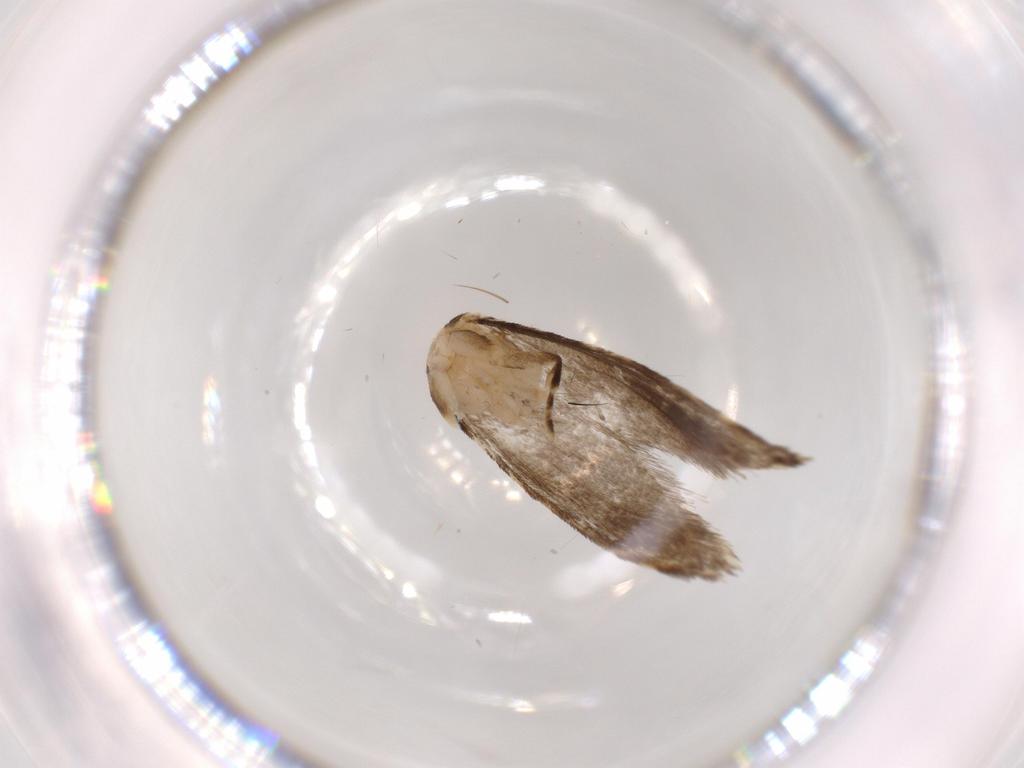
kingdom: Animalia
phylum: Arthropoda
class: Insecta
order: Lepidoptera
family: Tineidae
